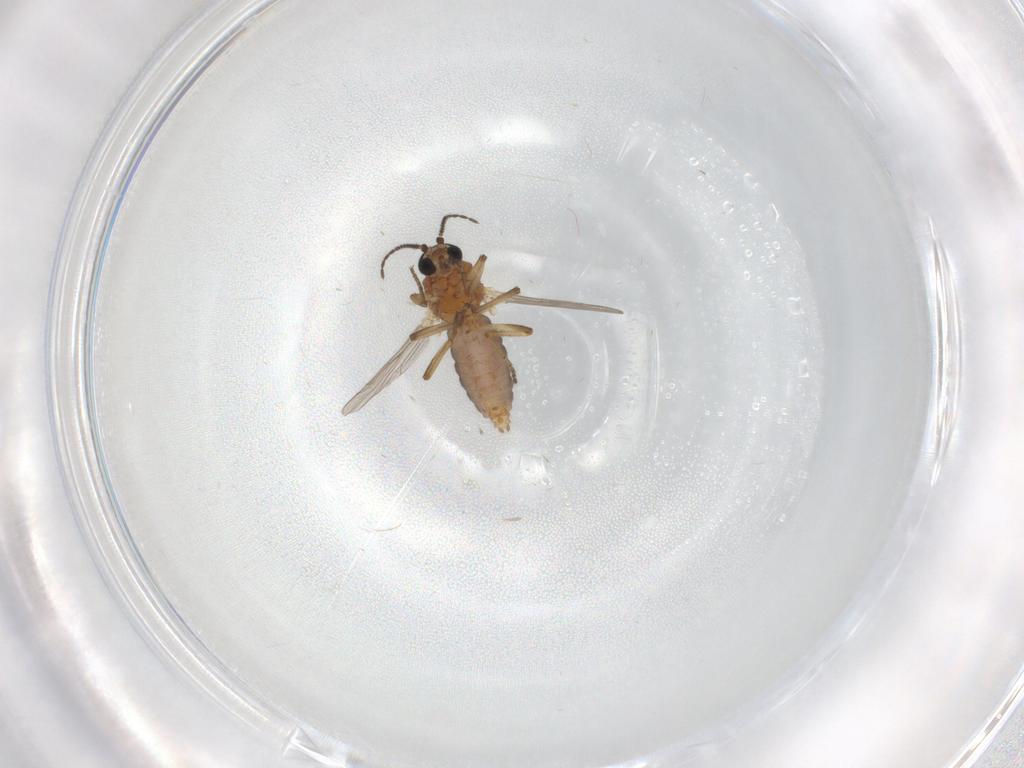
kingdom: Animalia
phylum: Arthropoda
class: Insecta
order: Diptera
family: Ceratopogonidae
